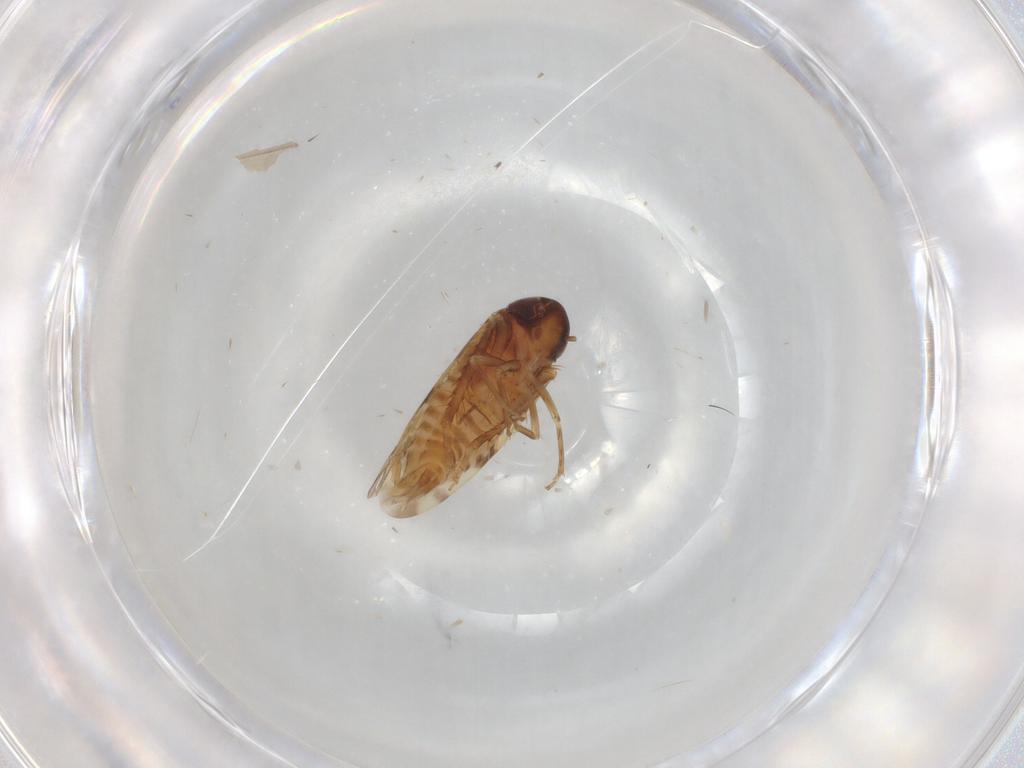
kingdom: Animalia
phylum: Arthropoda
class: Insecta
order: Hemiptera
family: Cicadellidae
